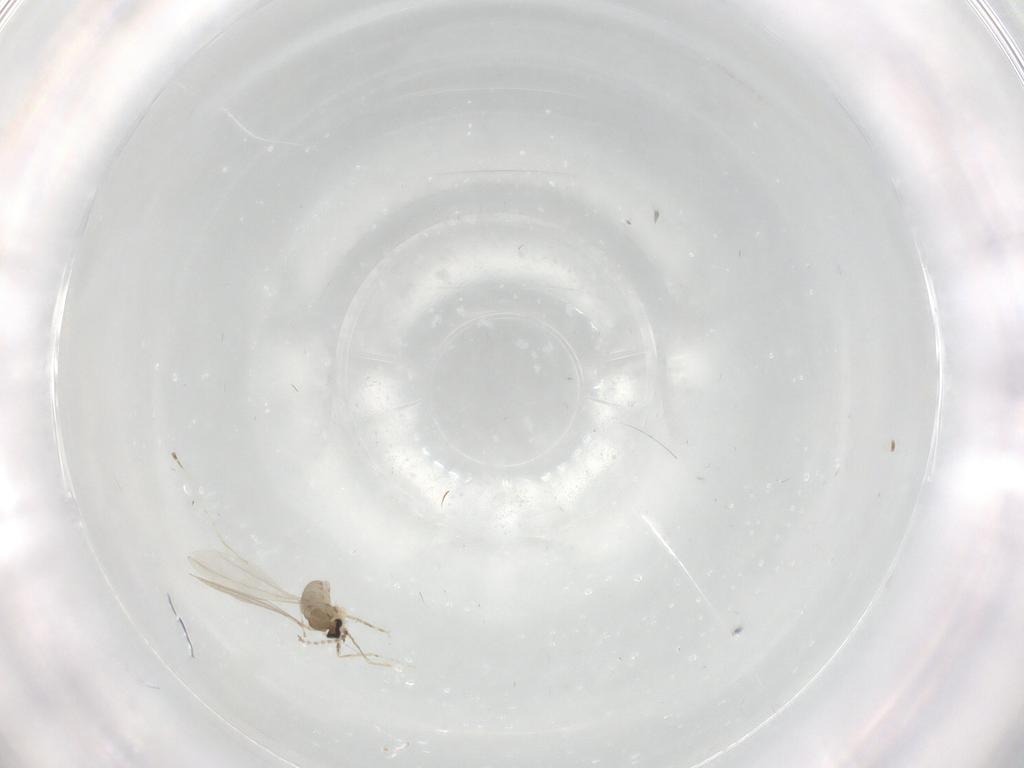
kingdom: Animalia
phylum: Arthropoda
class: Insecta
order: Diptera
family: Cecidomyiidae
